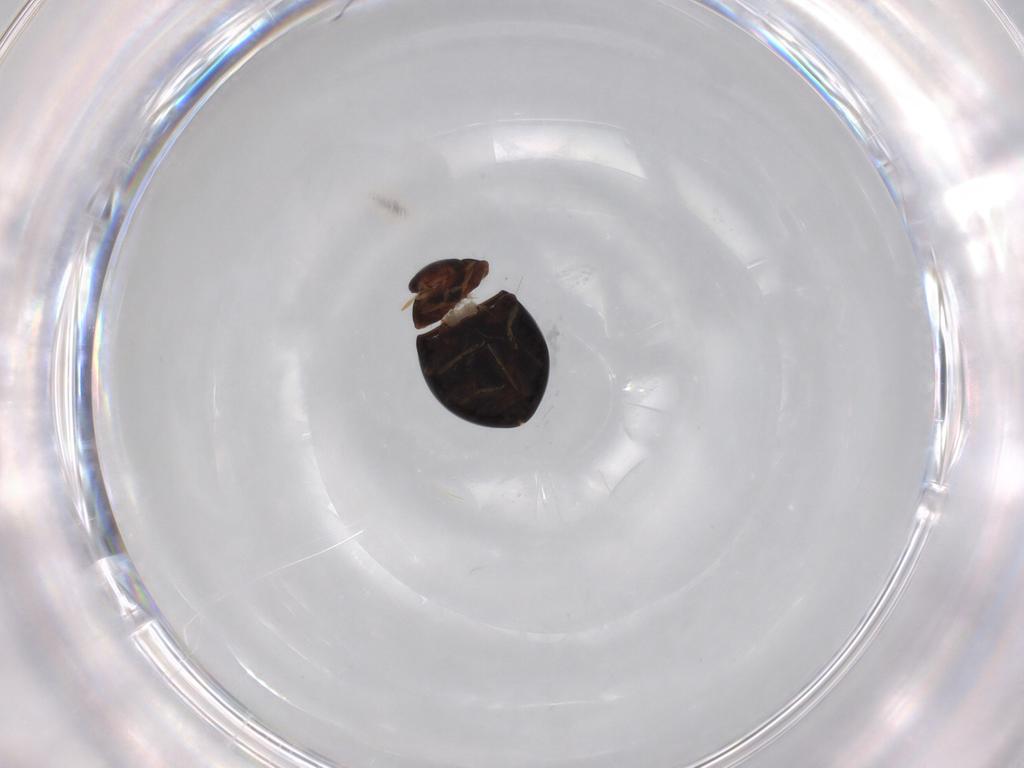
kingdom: Animalia
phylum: Arthropoda
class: Insecta
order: Coleoptera
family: Coccinellidae
